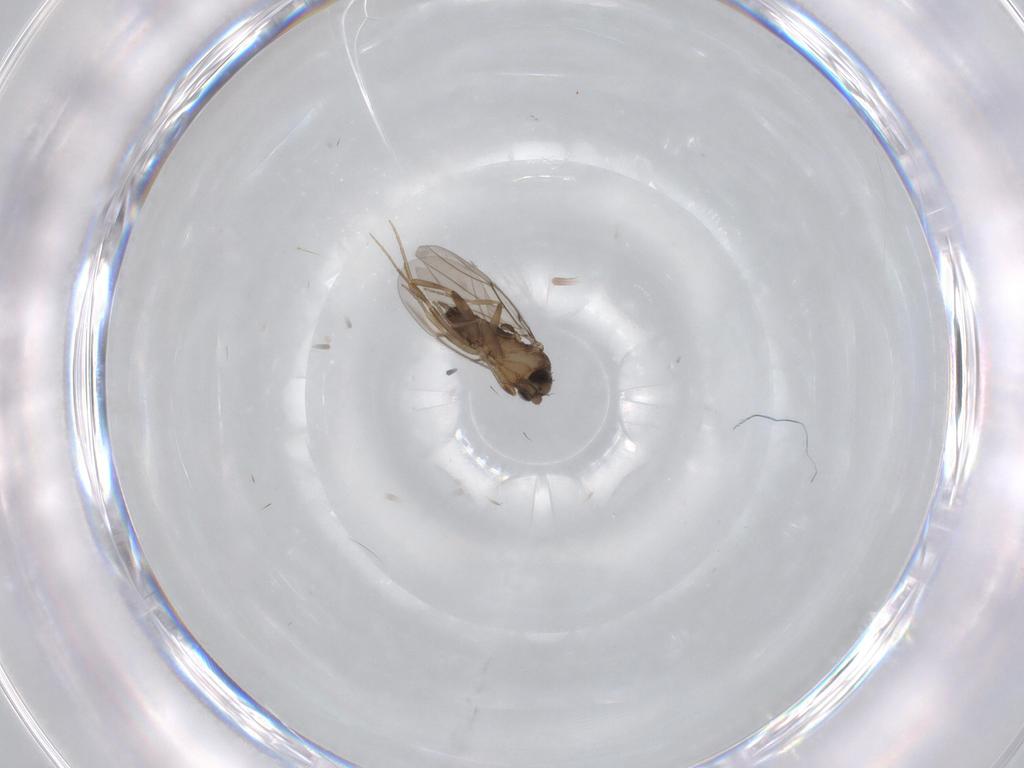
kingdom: Animalia
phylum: Arthropoda
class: Insecta
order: Diptera
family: Phoridae
